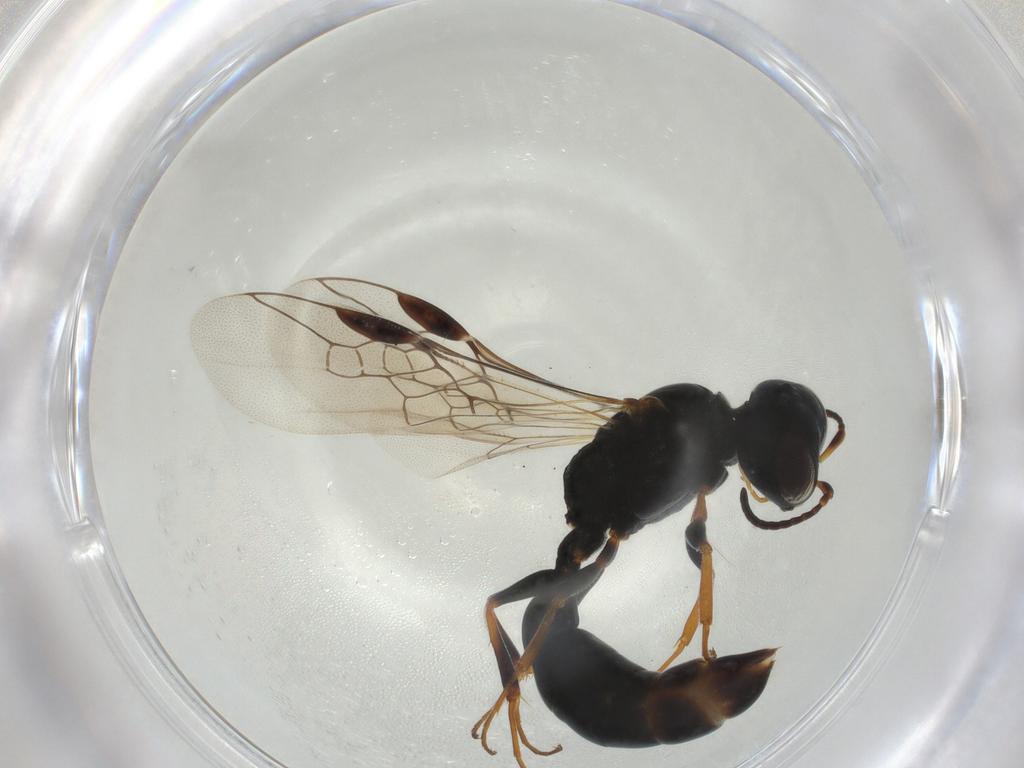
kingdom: Animalia
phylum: Arthropoda
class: Insecta
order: Hymenoptera
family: Pemphredonidae
